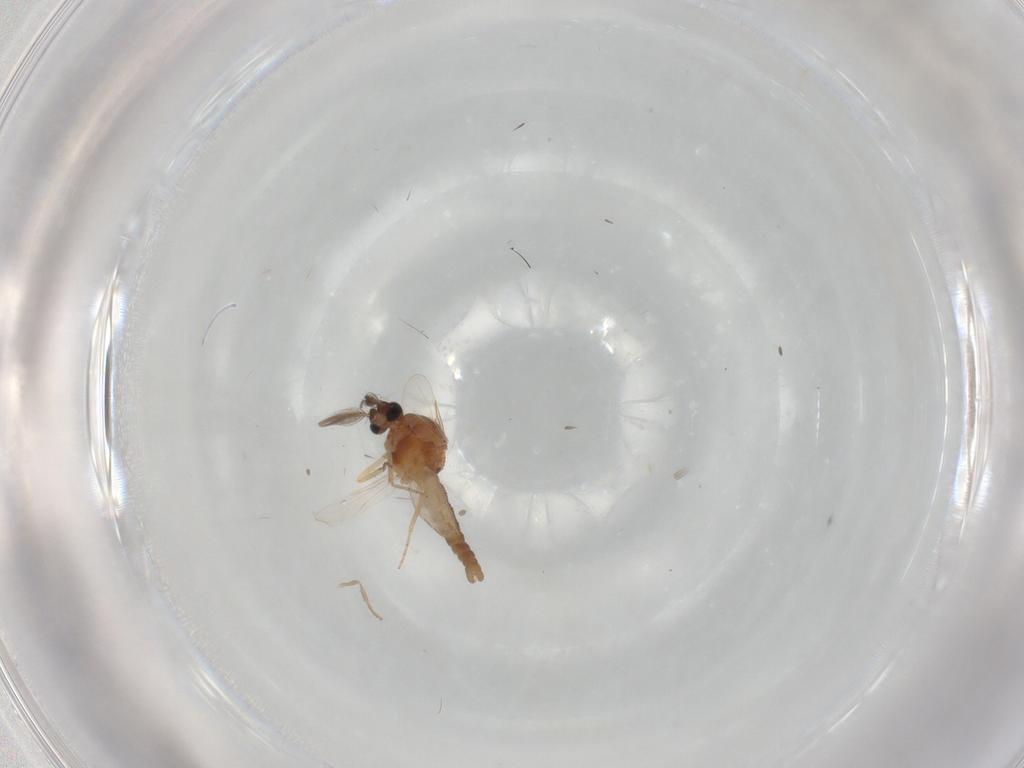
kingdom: Animalia
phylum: Arthropoda
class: Insecta
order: Diptera
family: Ceratopogonidae
